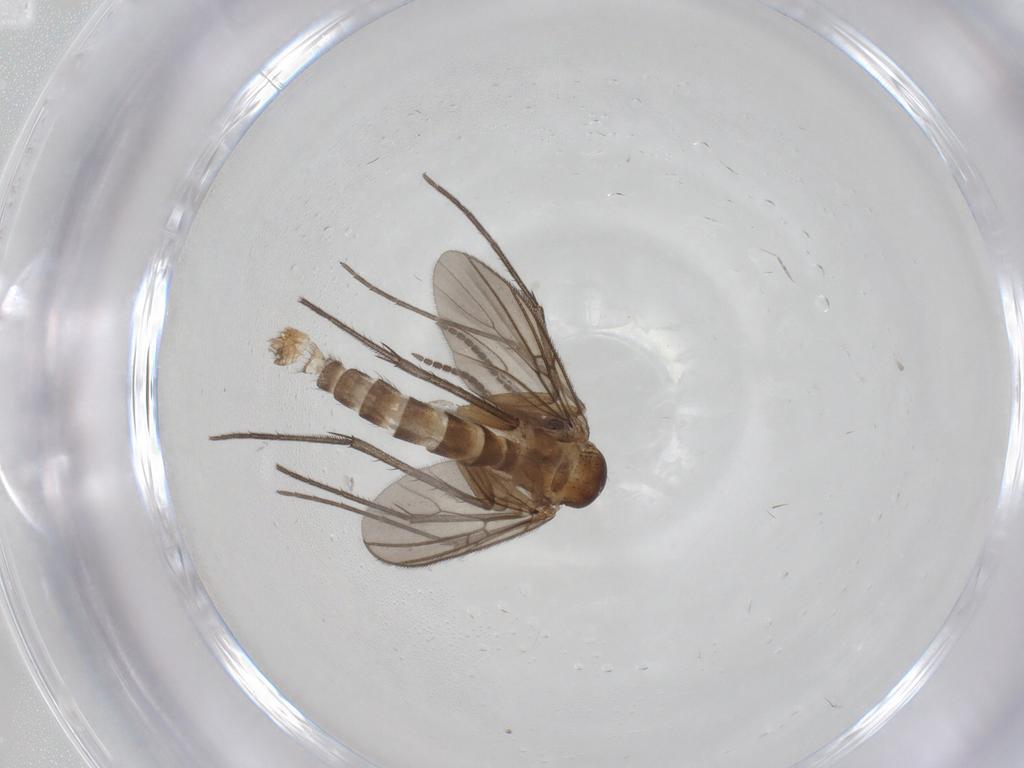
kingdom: Animalia
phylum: Arthropoda
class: Insecta
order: Diptera
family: Mycetophilidae
